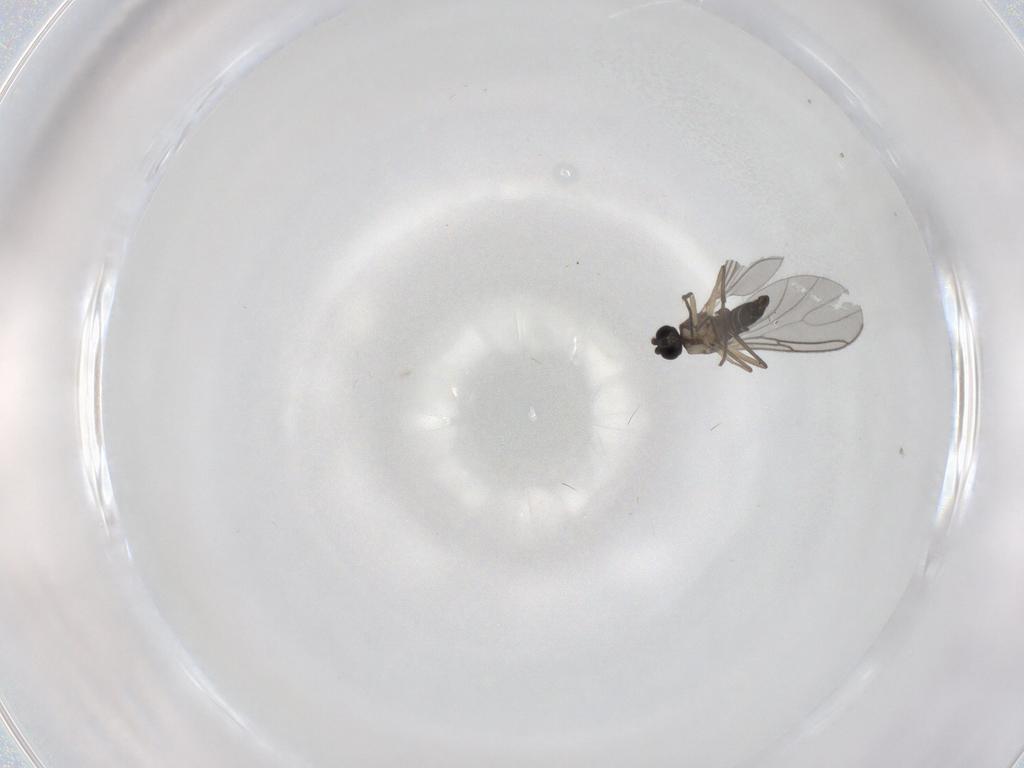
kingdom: Animalia
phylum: Arthropoda
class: Insecta
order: Diptera
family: Sciaridae
